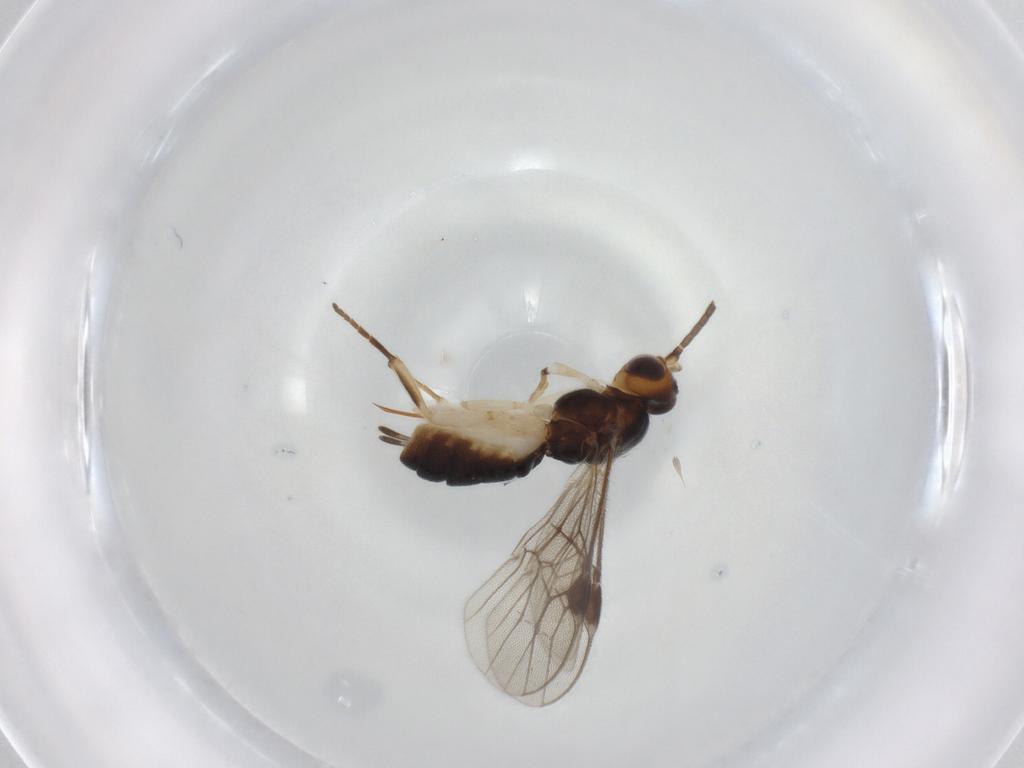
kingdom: Animalia
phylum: Arthropoda
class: Insecta
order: Hymenoptera
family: Braconidae
